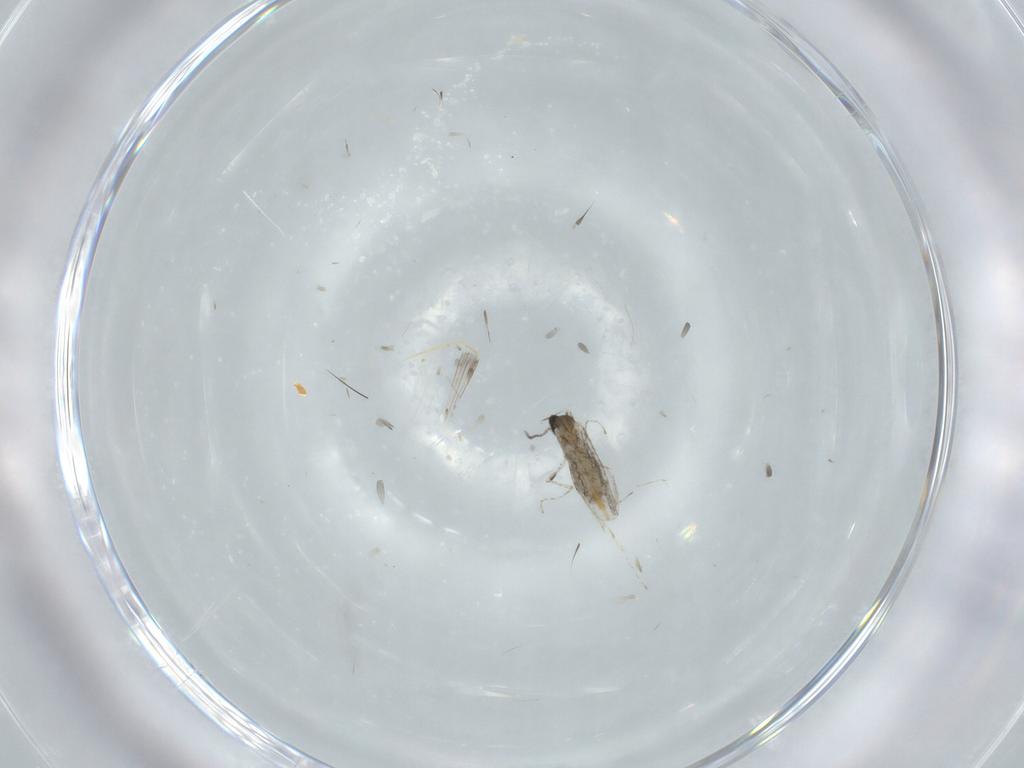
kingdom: Animalia
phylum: Arthropoda
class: Insecta
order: Diptera
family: Cecidomyiidae
